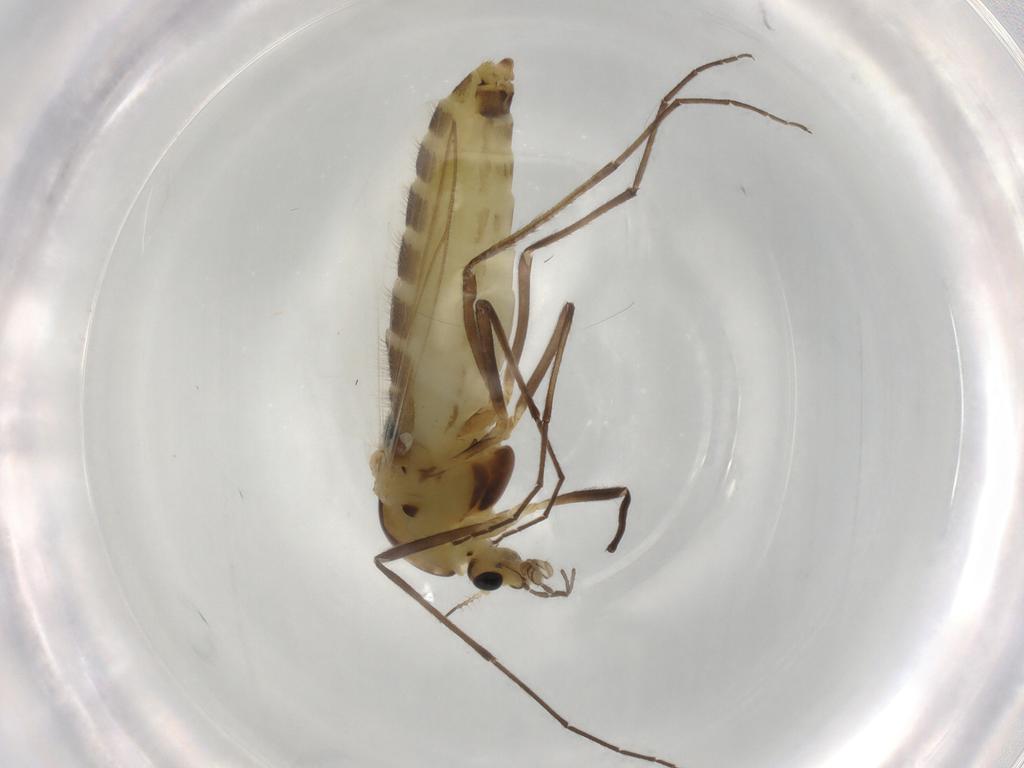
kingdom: Animalia
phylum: Arthropoda
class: Insecta
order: Diptera
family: Chironomidae
